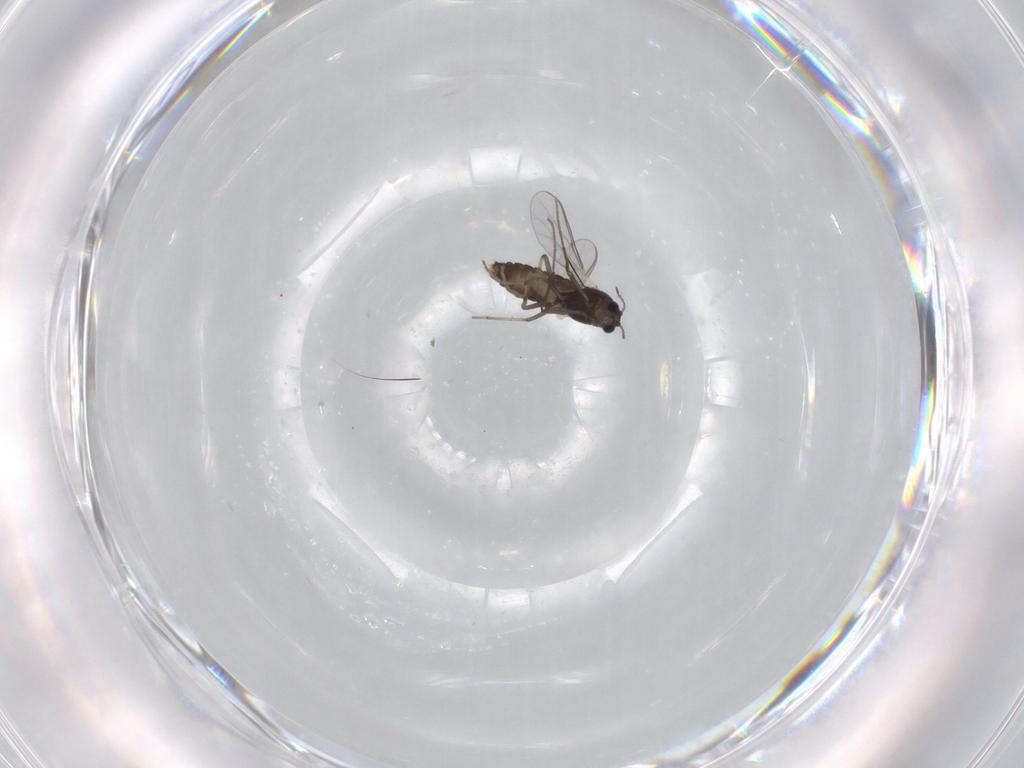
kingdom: Animalia
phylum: Arthropoda
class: Insecta
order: Diptera
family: Chironomidae
